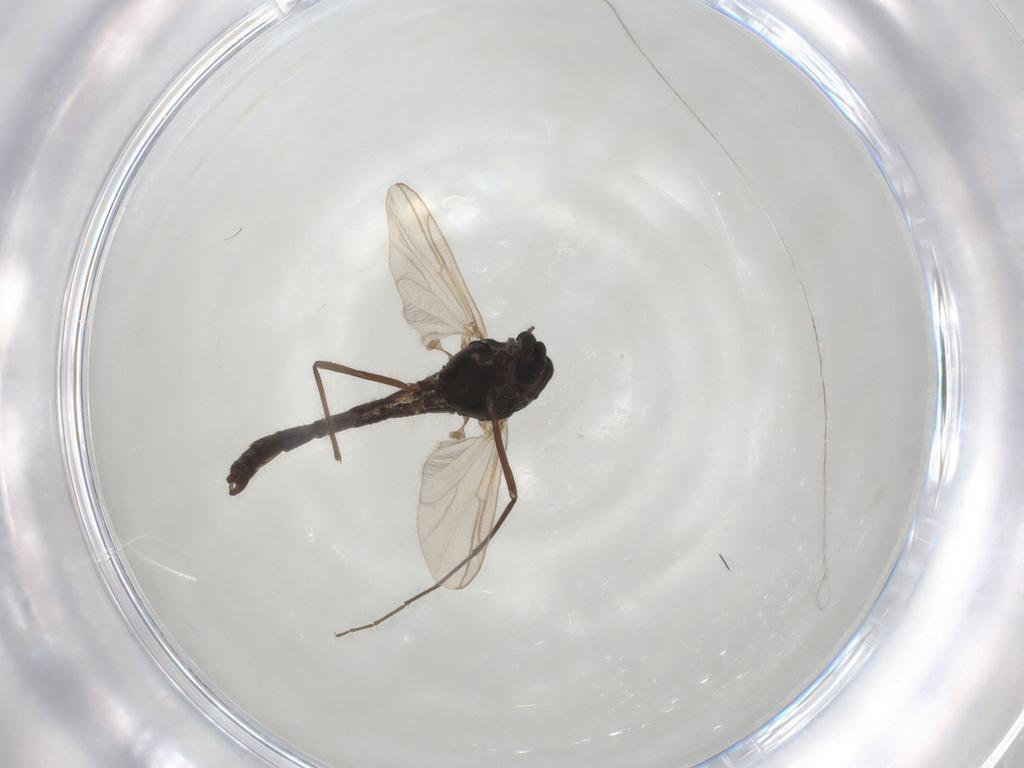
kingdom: Animalia
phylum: Arthropoda
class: Insecta
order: Diptera
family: Chironomidae
